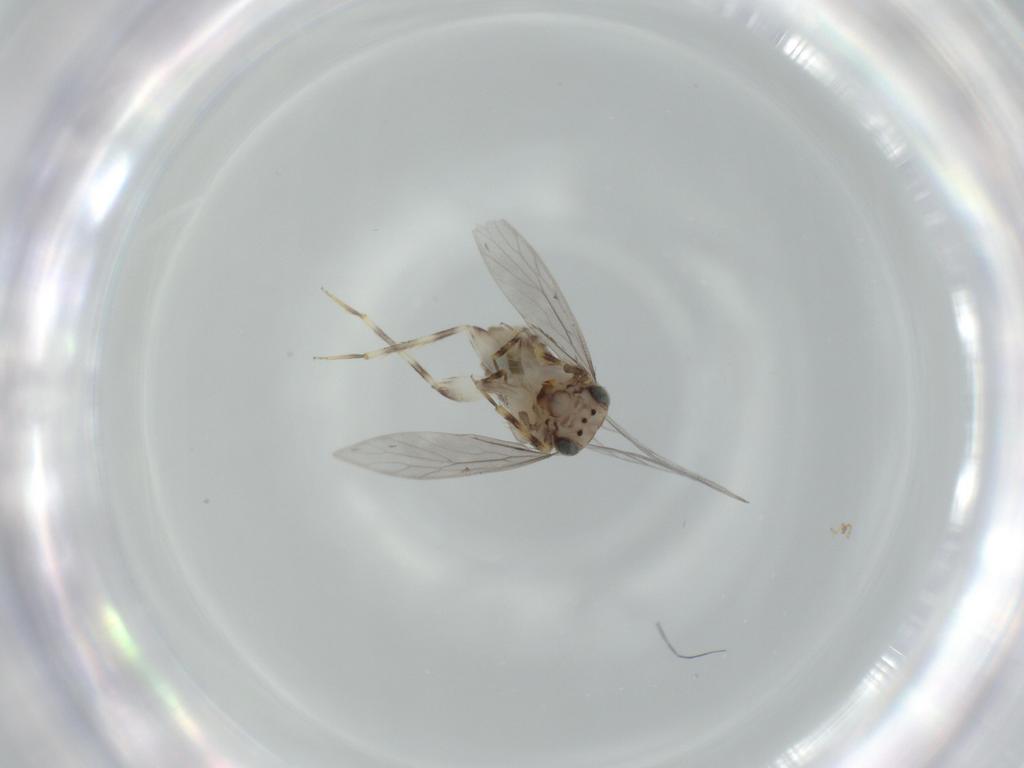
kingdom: Animalia
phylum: Arthropoda
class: Insecta
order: Psocodea
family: Lepidopsocidae
